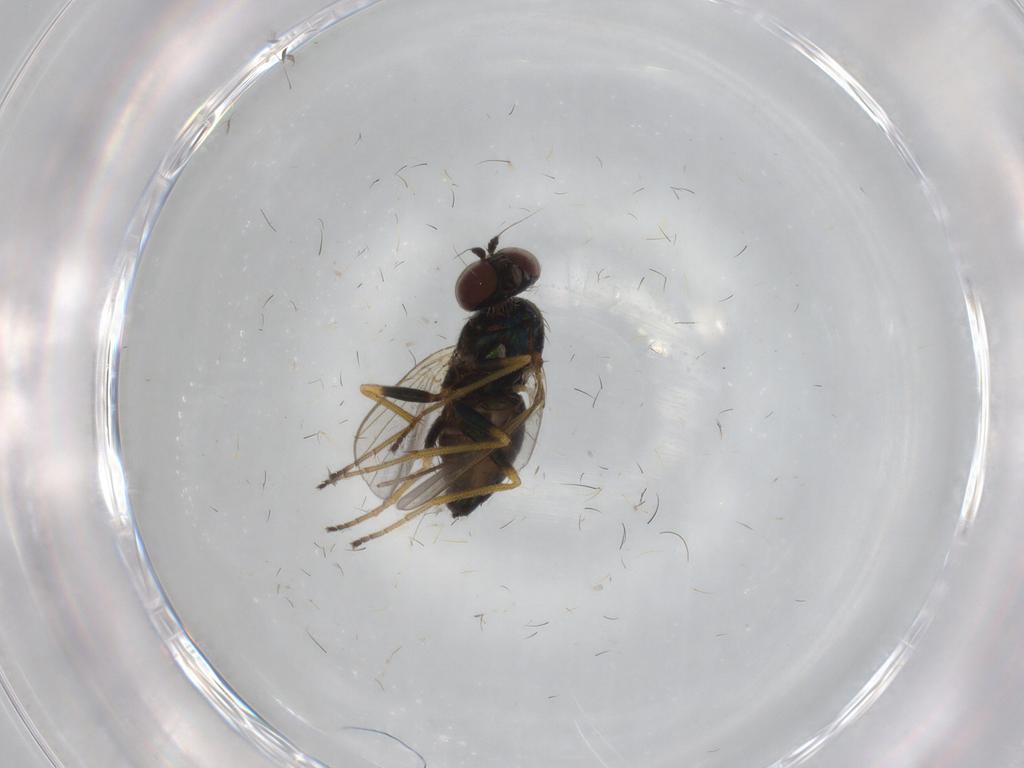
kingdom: Animalia
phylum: Arthropoda
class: Insecta
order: Diptera
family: Dolichopodidae
